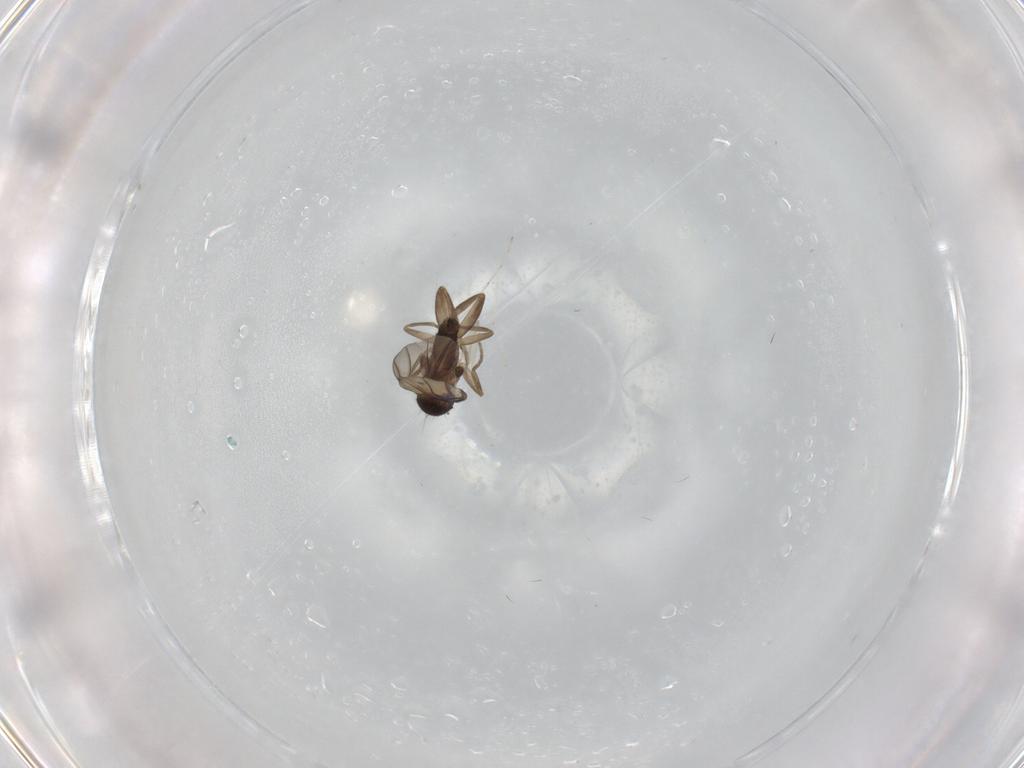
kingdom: Animalia
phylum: Arthropoda
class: Insecta
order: Diptera
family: Phoridae
